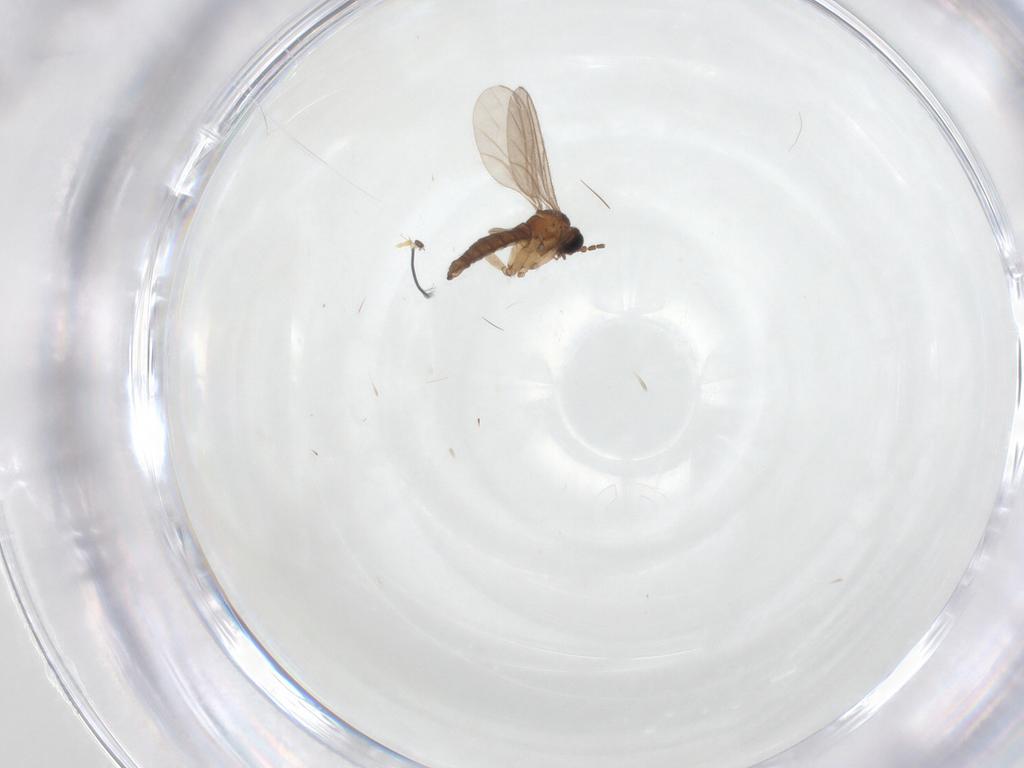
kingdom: Animalia
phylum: Arthropoda
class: Insecta
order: Diptera
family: Sciaridae
